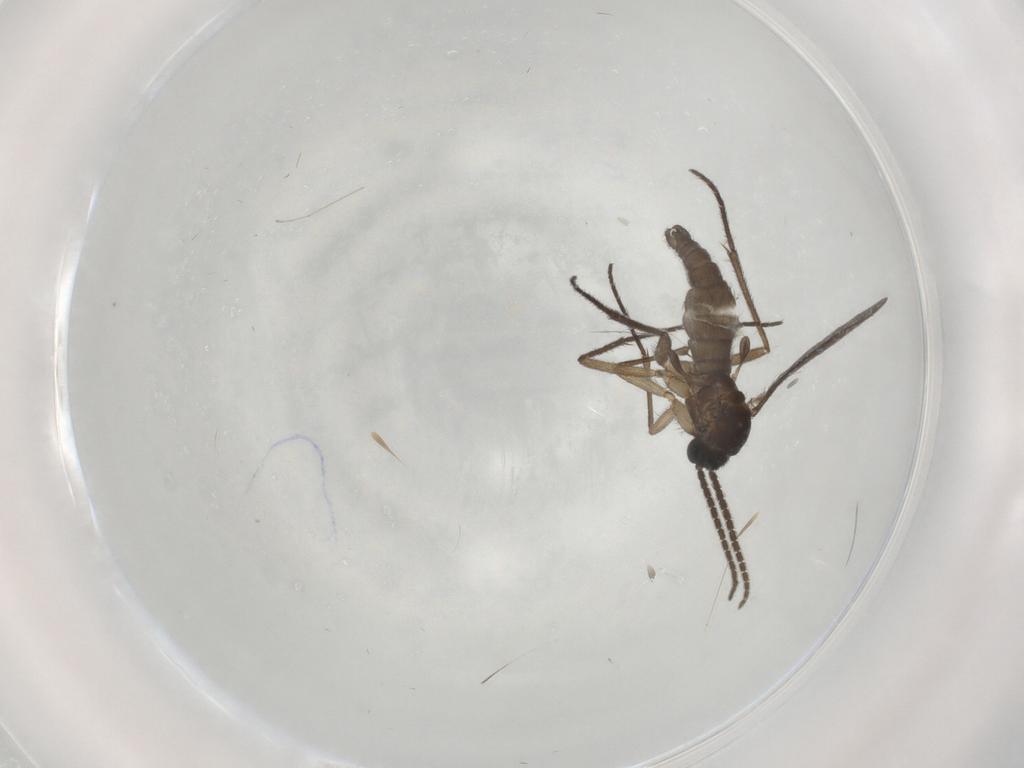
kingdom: Animalia
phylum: Arthropoda
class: Insecta
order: Diptera
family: Sciaridae
